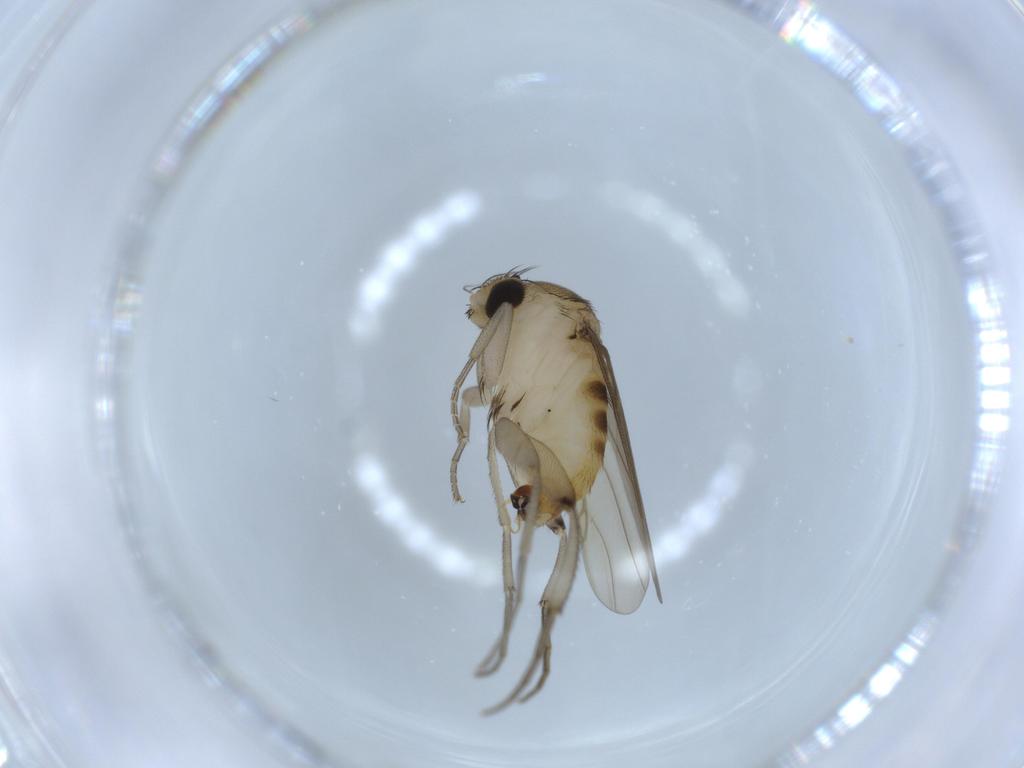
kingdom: Animalia
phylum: Arthropoda
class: Insecta
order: Diptera
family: Phoridae
